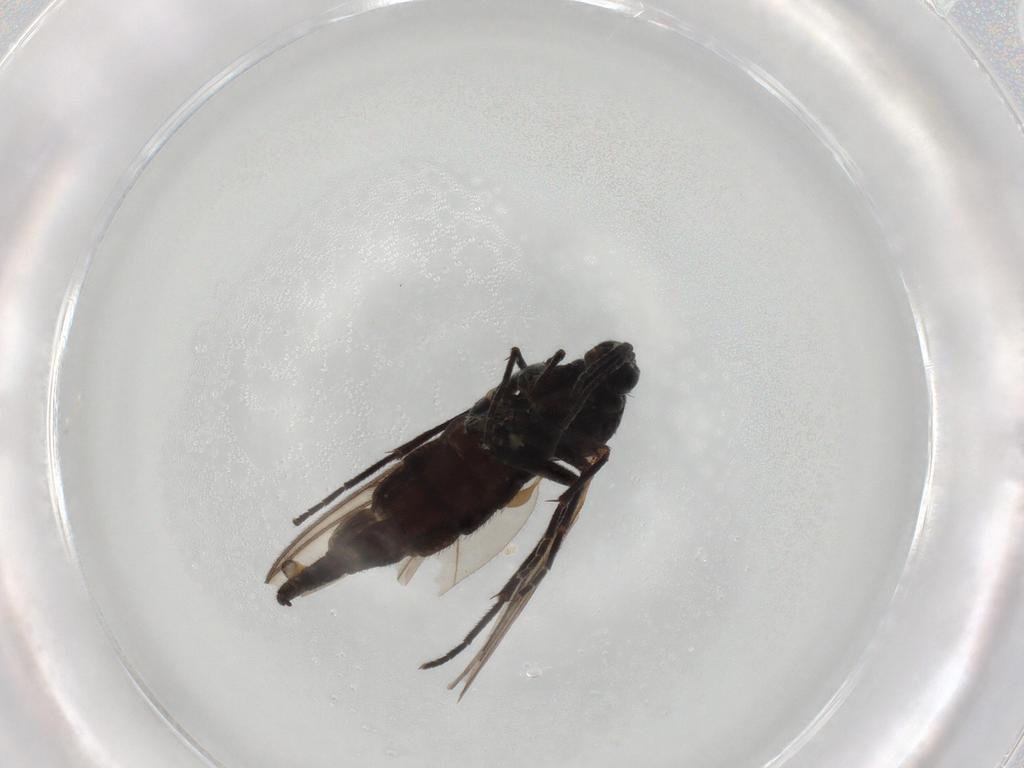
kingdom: Animalia
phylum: Arthropoda
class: Insecta
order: Diptera
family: Sciaridae
